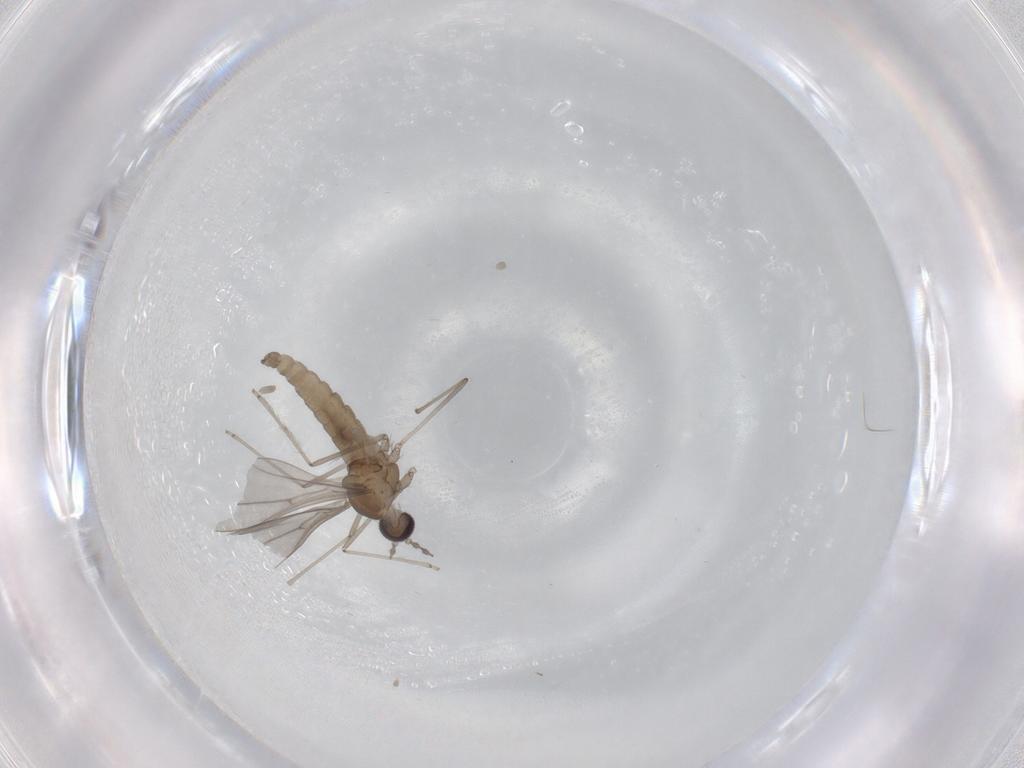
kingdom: Animalia
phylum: Arthropoda
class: Insecta
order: Diptera
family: Cecidomyiidae
